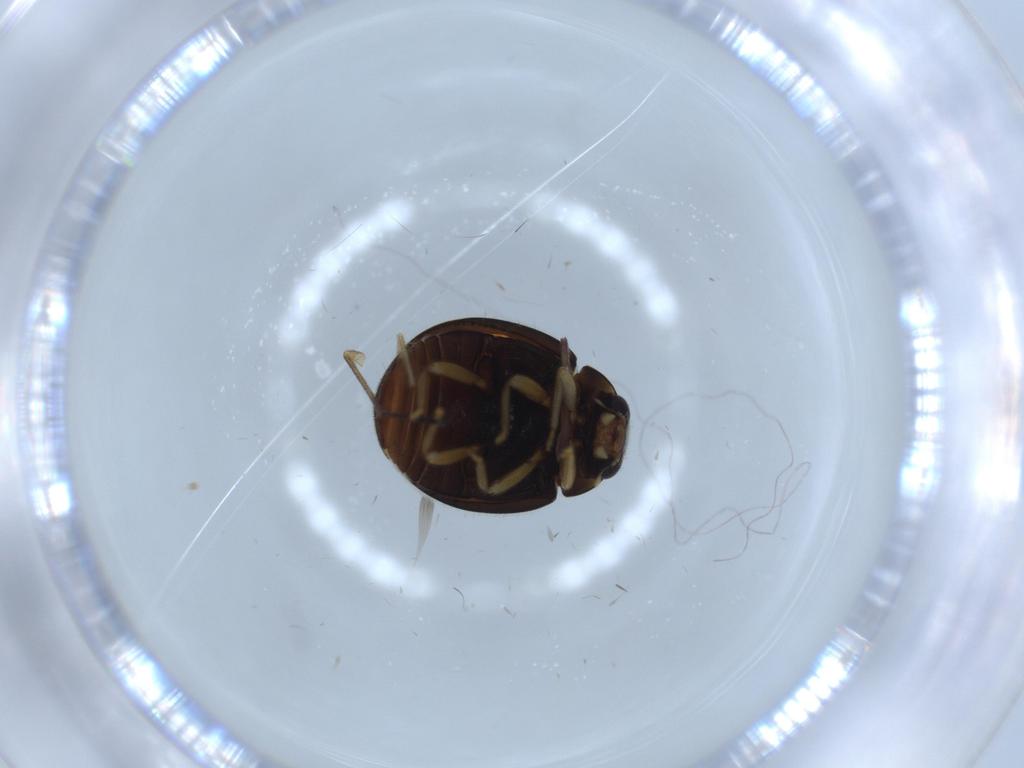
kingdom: Animalia
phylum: Arthropoda
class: Insecta
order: Coleoptera
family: Coccinellidae
